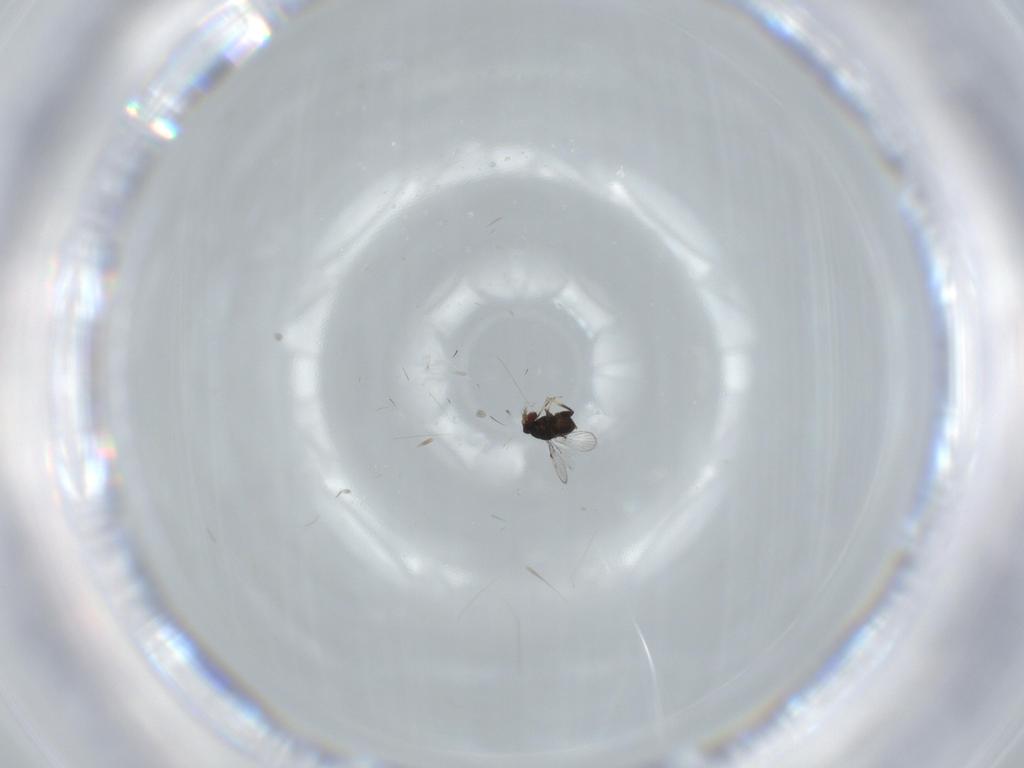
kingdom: Animalia
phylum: Arthropoda
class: Insecta
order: Hymenoptera
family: Trichogrammatidae
